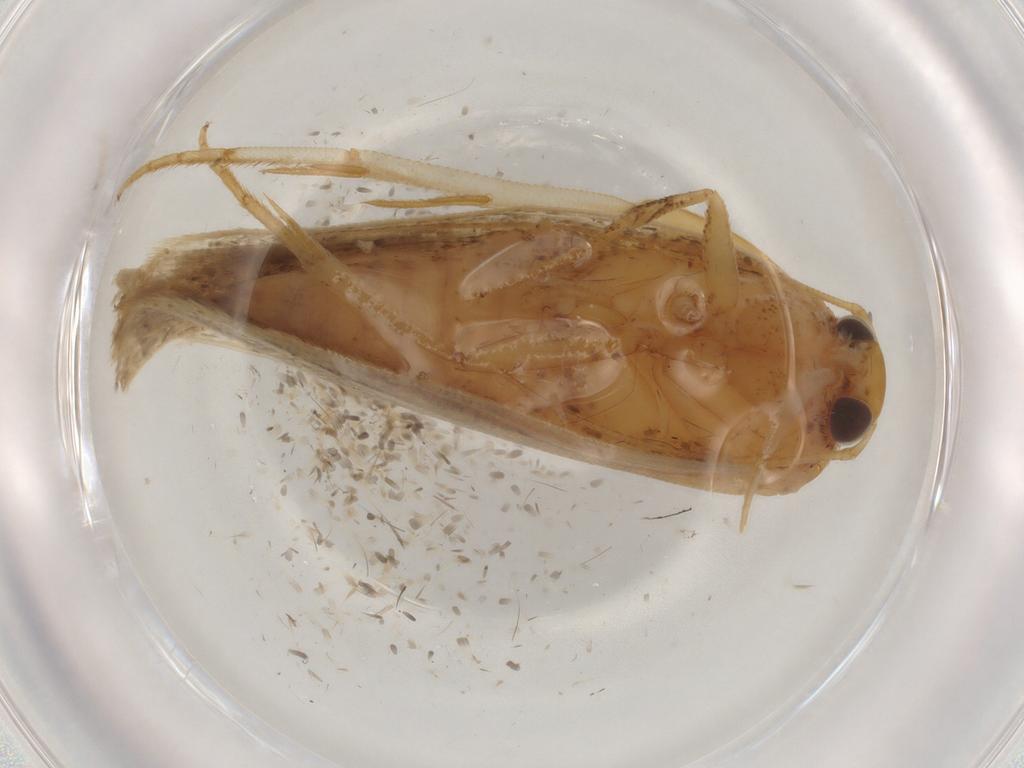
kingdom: Animalia
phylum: Arthropoda
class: Insecta
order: Lepidoptera
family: Gelechiidae
